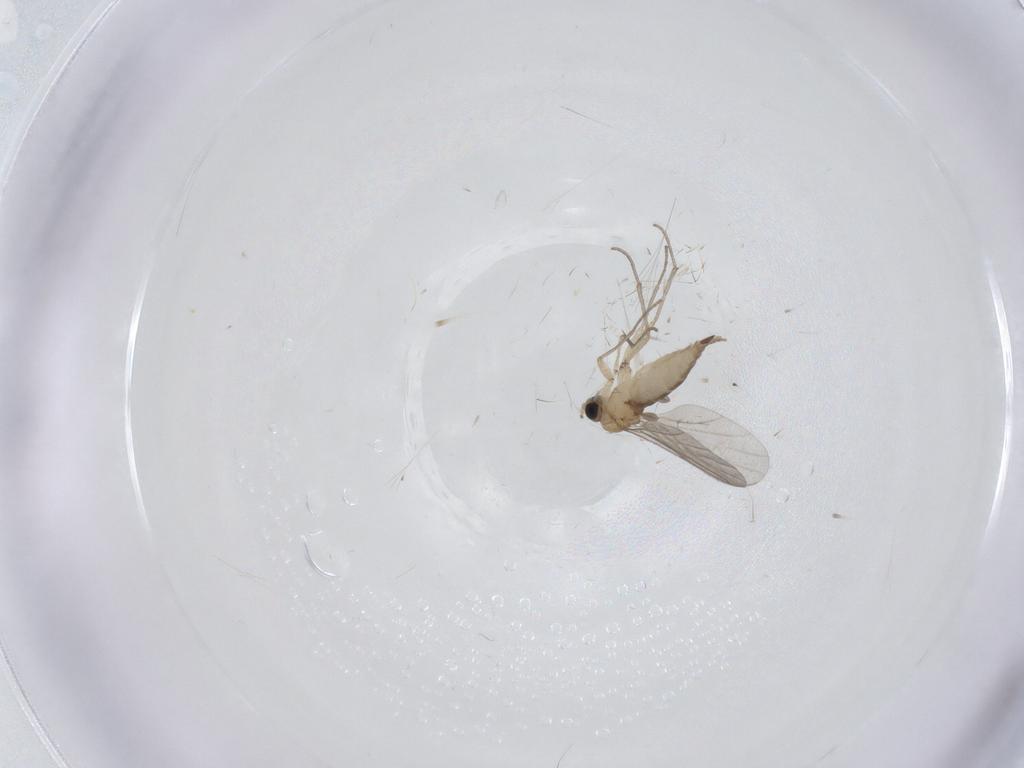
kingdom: Animalia
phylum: Arthropoda
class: Insecta
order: Diptera
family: Sciaridae
